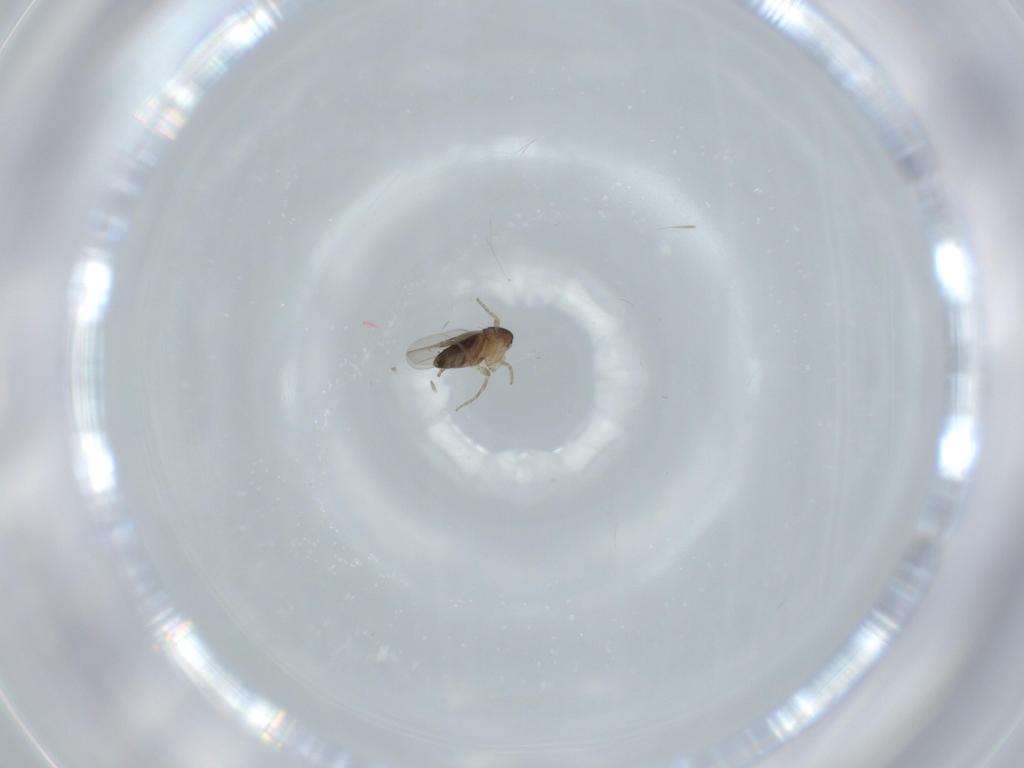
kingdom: Animalia
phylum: Arthropoda
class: Insecta
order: Diptera
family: Phoridae
